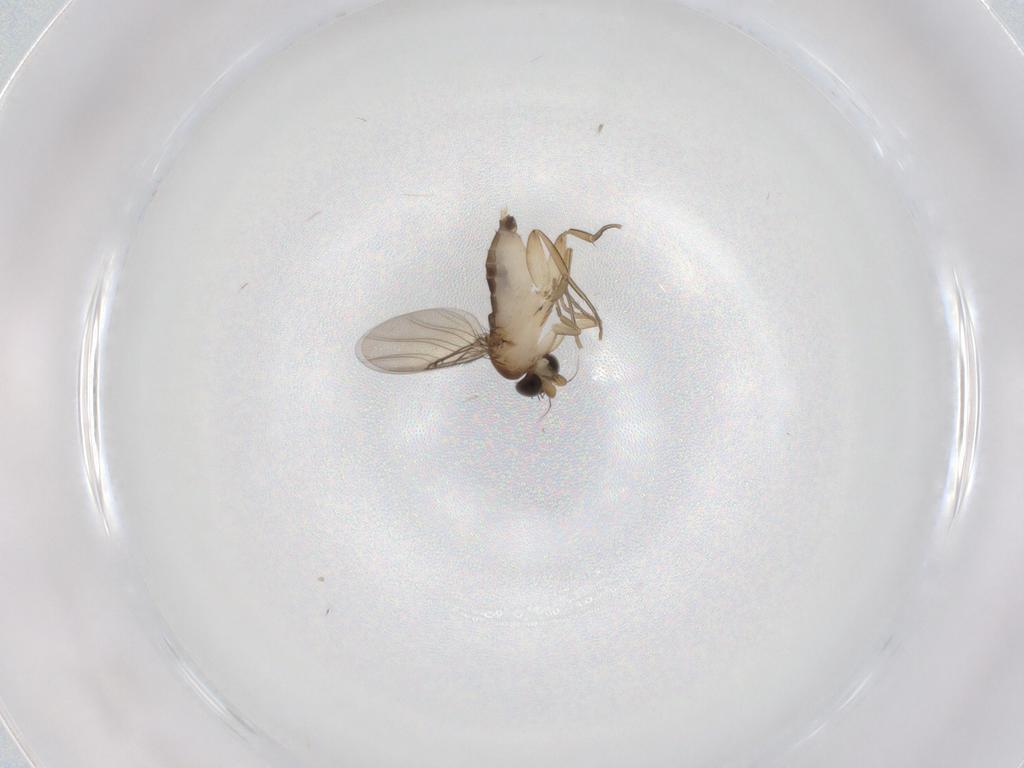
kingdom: Animalia
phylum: Arthropoda
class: Insecta
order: Diptera
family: Phoridae
